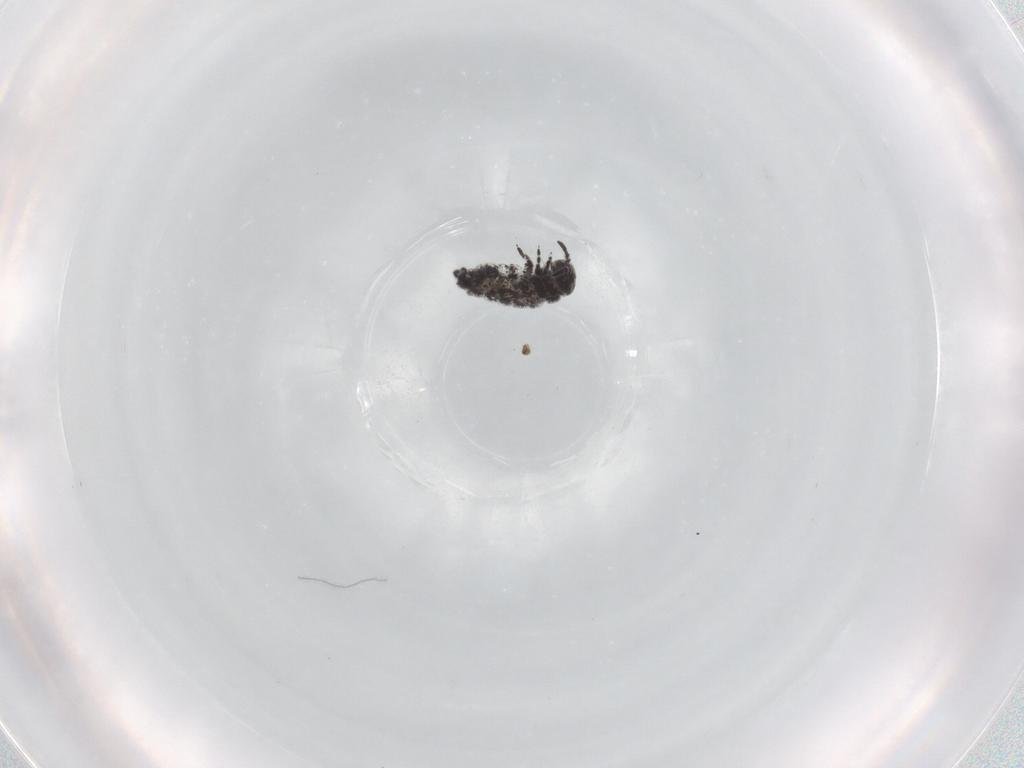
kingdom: Animalia
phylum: Arthropoda
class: Collembola
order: Poduromorpha
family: Hypogastruridae
